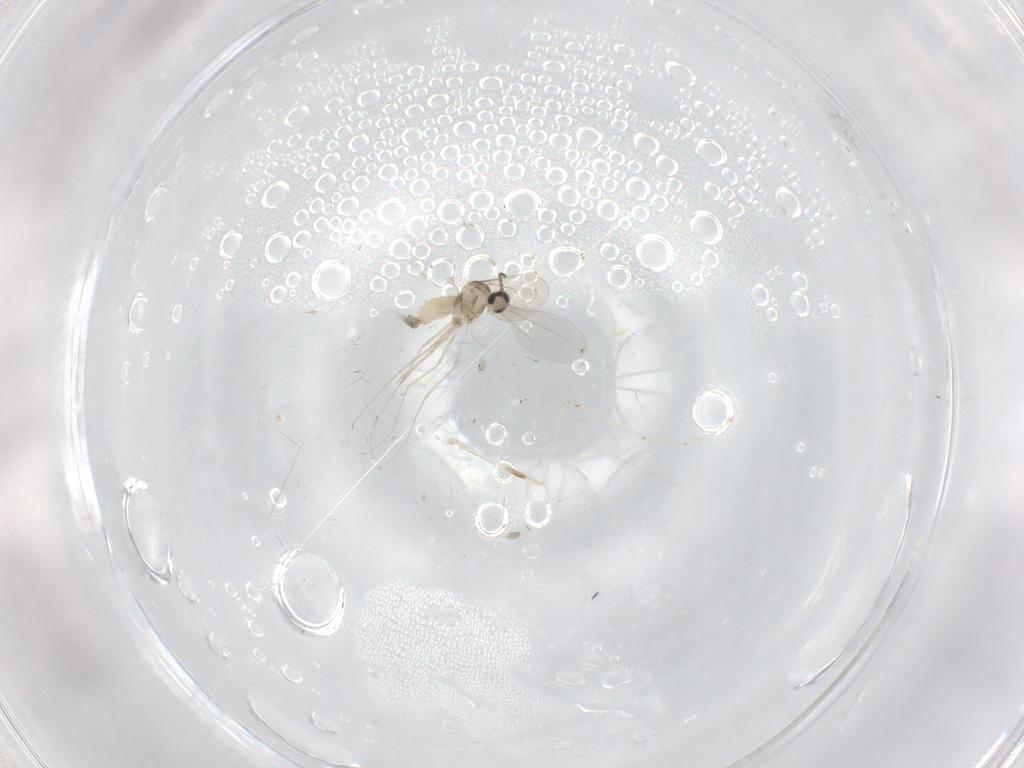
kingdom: Animalia
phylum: Arthropoda
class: Insecta
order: Diptera
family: Cecidomyiidae
